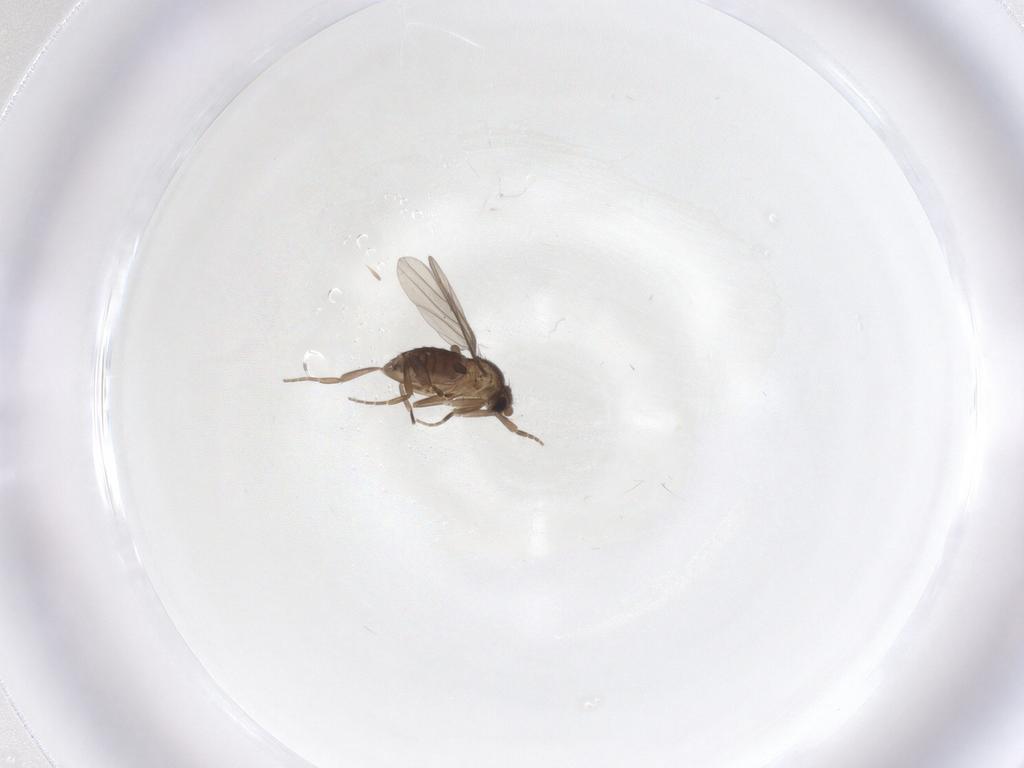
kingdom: Animalia
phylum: Arthropoda
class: Insecta
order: Diptera
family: Phoridae
